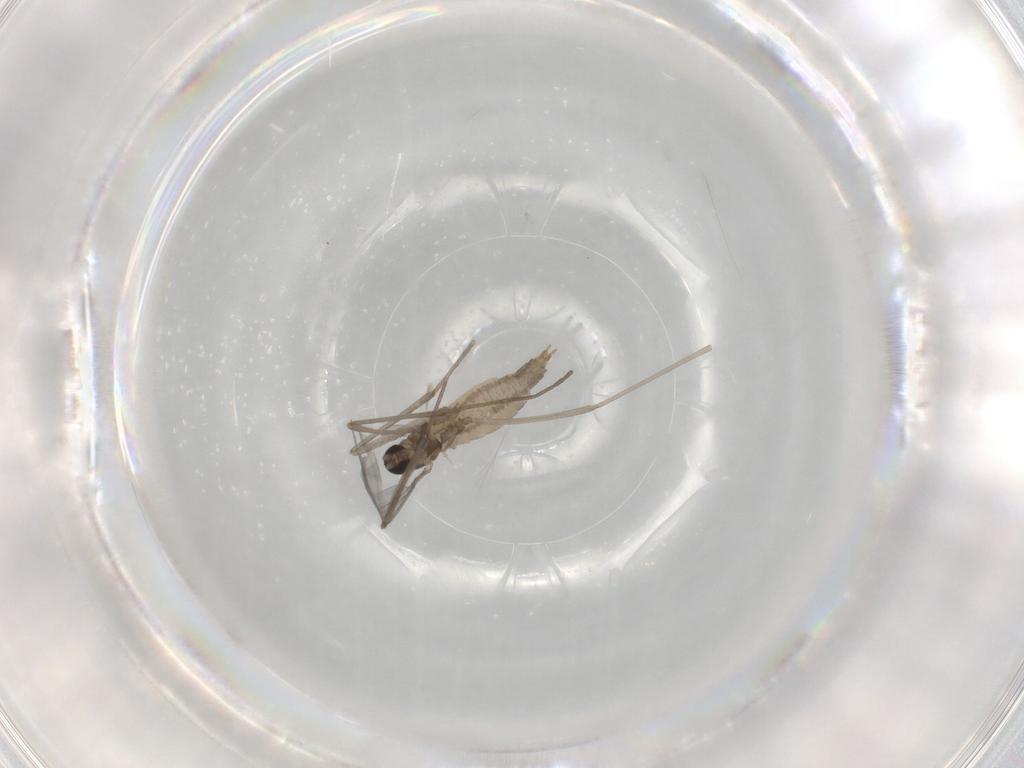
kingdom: Animalia
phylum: Arthropoda
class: Insecta
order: Diptera
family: Cecidomyiidae
